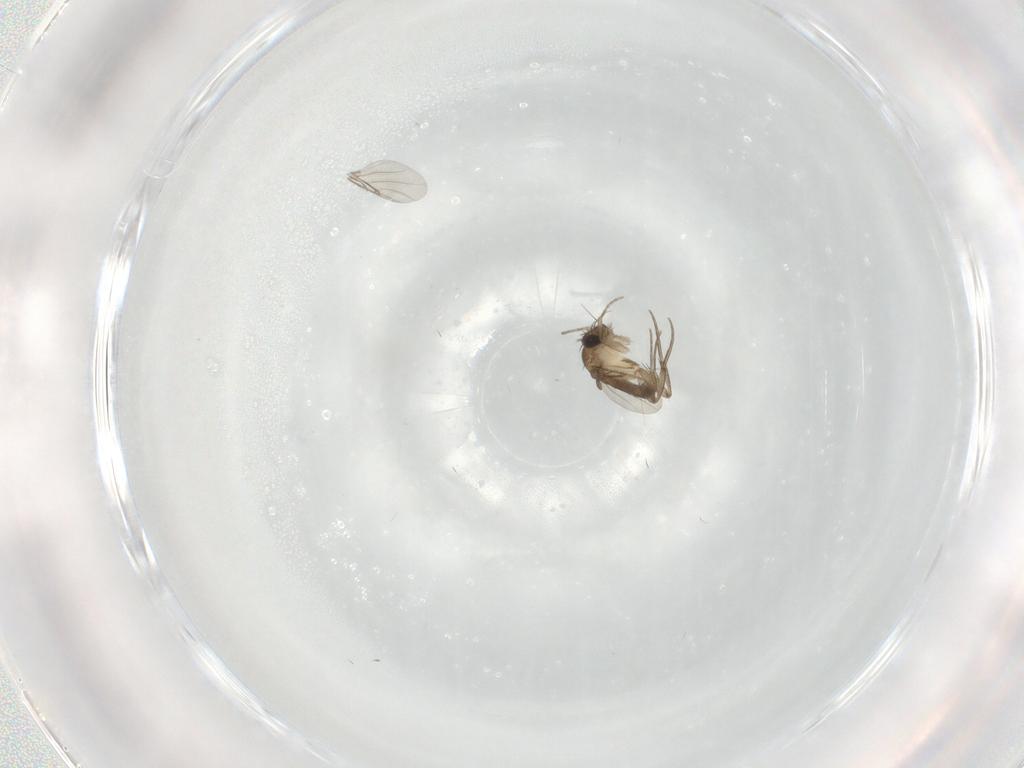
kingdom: Animalia
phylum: Arthropoda
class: Insecta
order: Diptera
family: Phoridae
